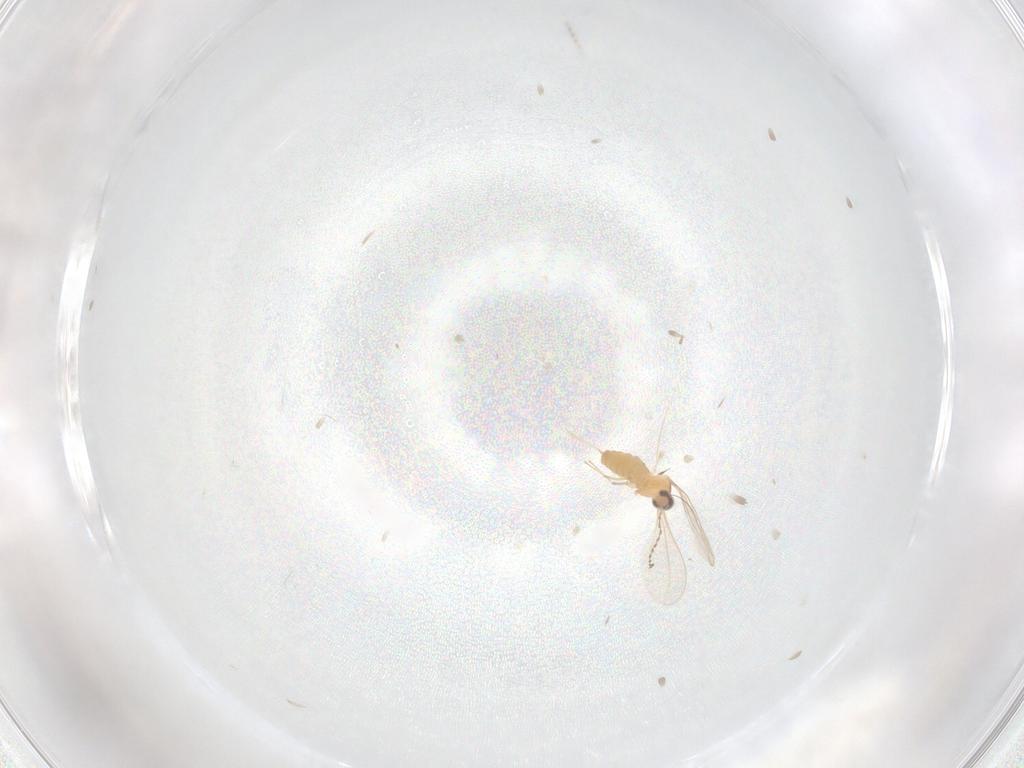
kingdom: Animalia
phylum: Arthropoda
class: Insecta
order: Diptera
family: Cecidomyiidae
